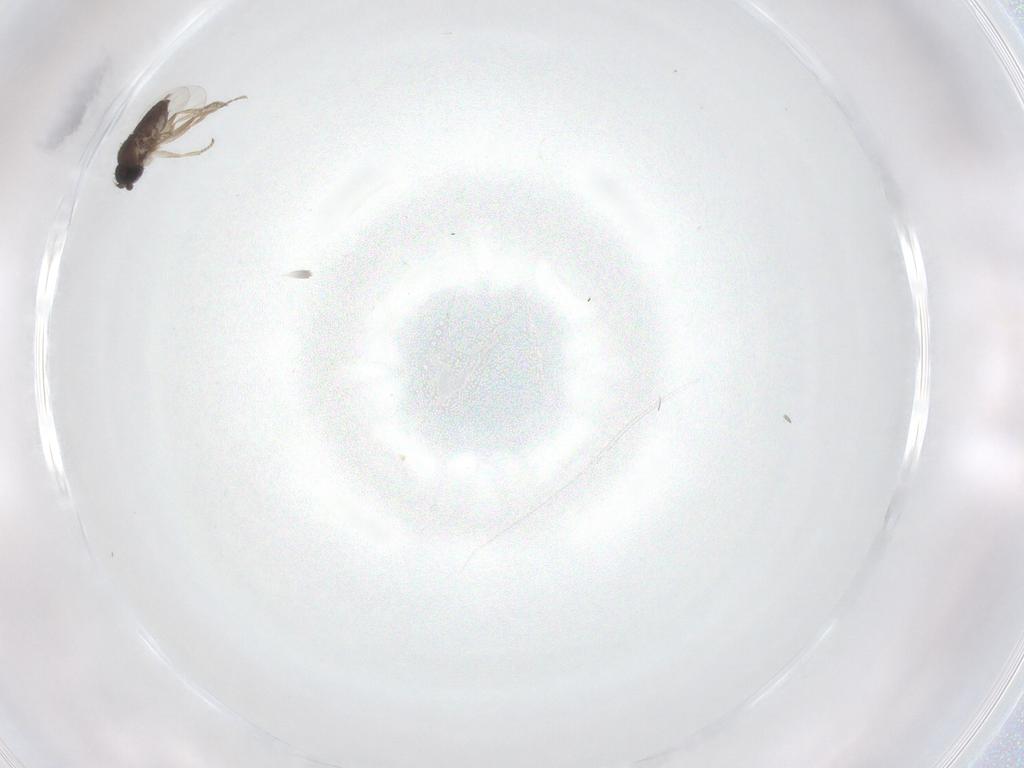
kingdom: Animalia
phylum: Arthropoda
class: Insecta
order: Diptera
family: Phoridae
